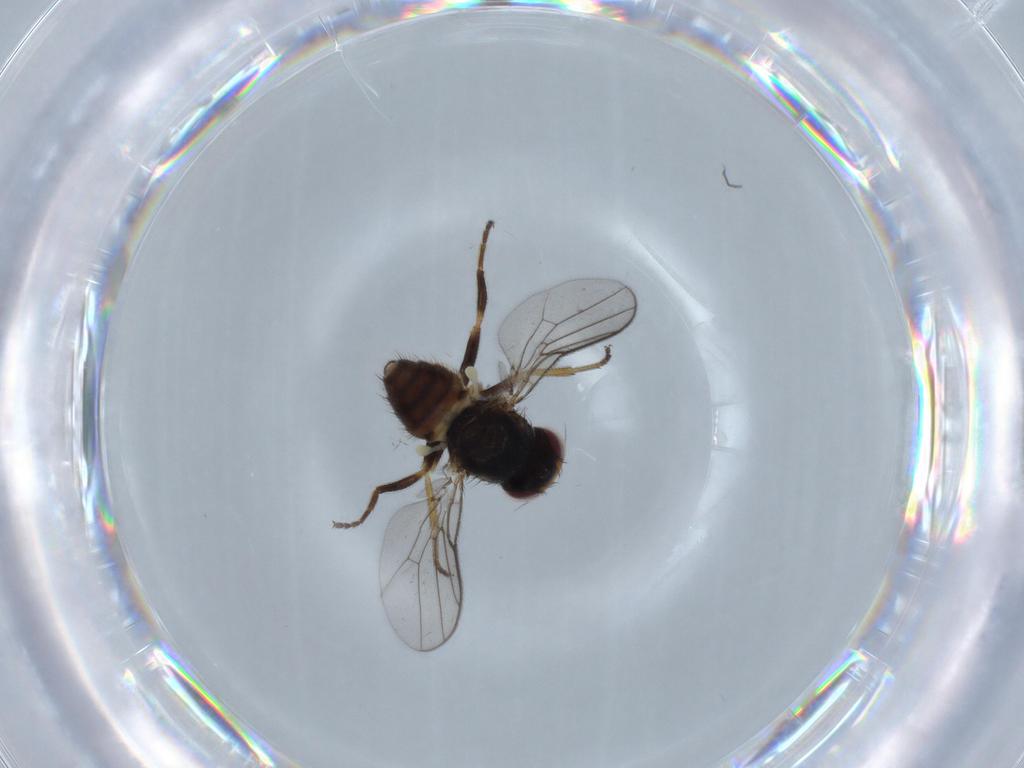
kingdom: Animalia
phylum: Arthropoda
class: Insecta
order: Diptera
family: Chloropidae
